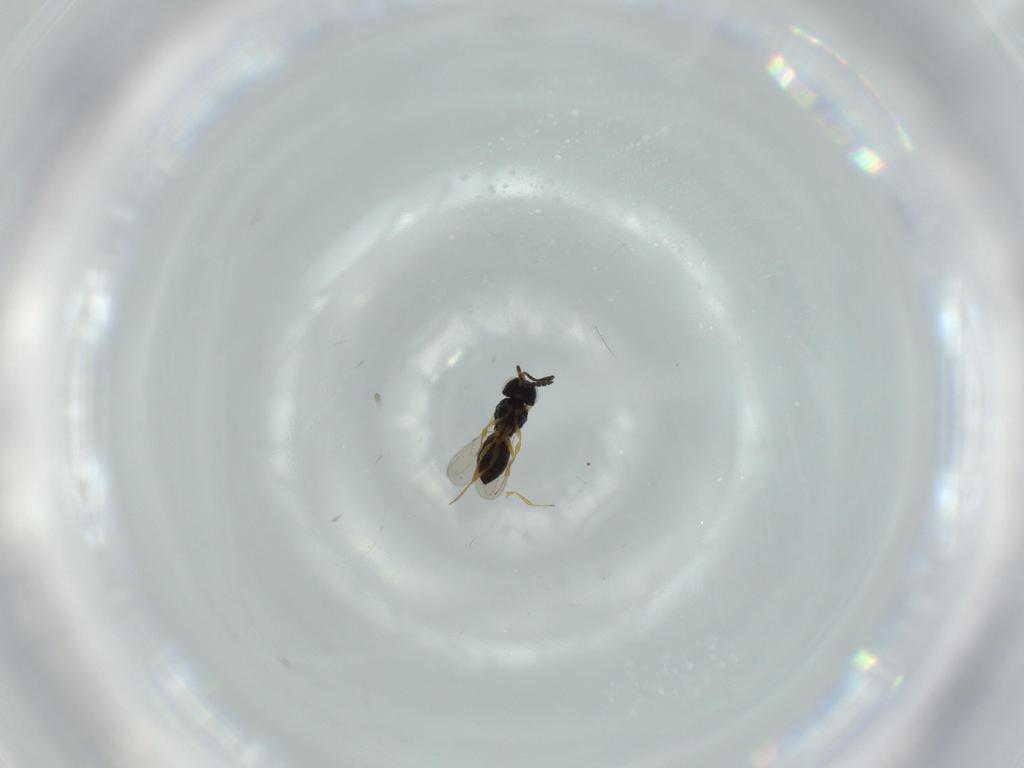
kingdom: Animalia
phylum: Arthropoda
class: Insecta
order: Hymenoptera
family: Scelionidae
